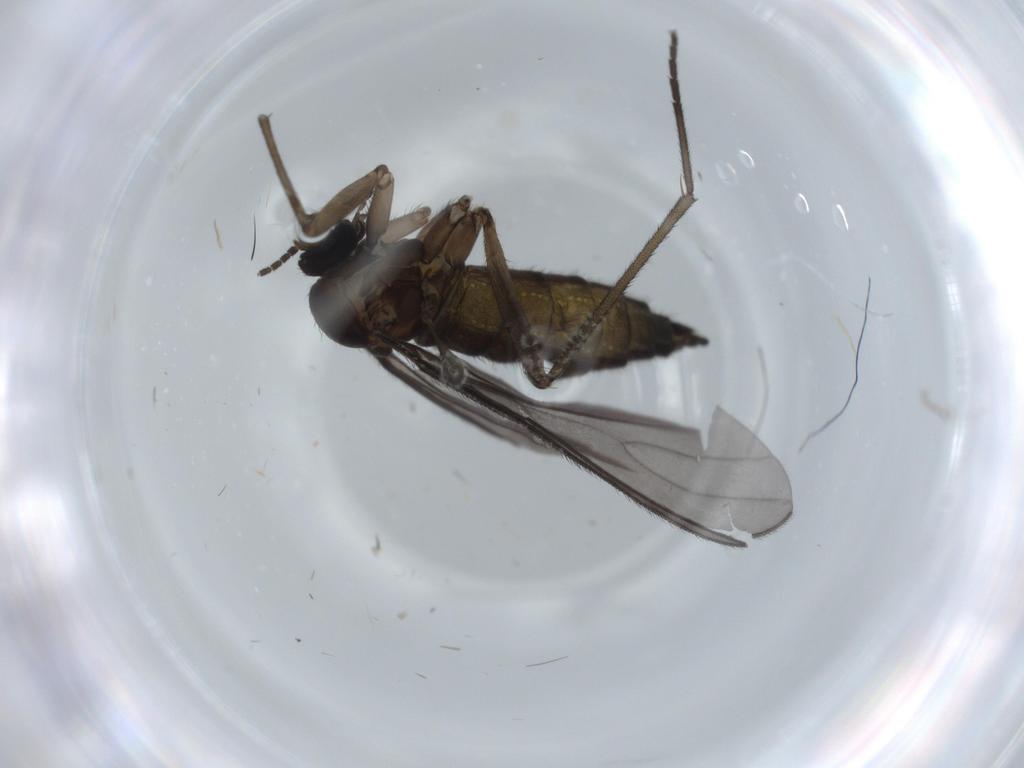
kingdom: Animalia
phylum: Arthropoda
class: Insecta
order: Diptera
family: Sciaridae
